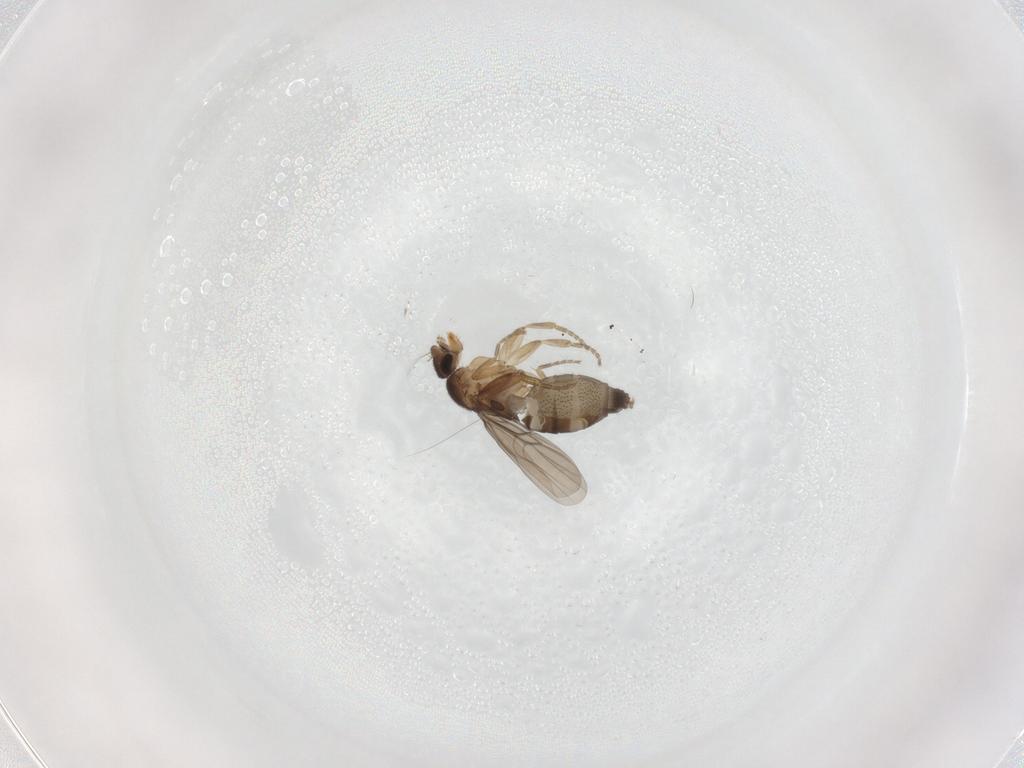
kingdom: Animalia
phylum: Arthropoda
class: Insecta
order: Diptera
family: Phoridae
